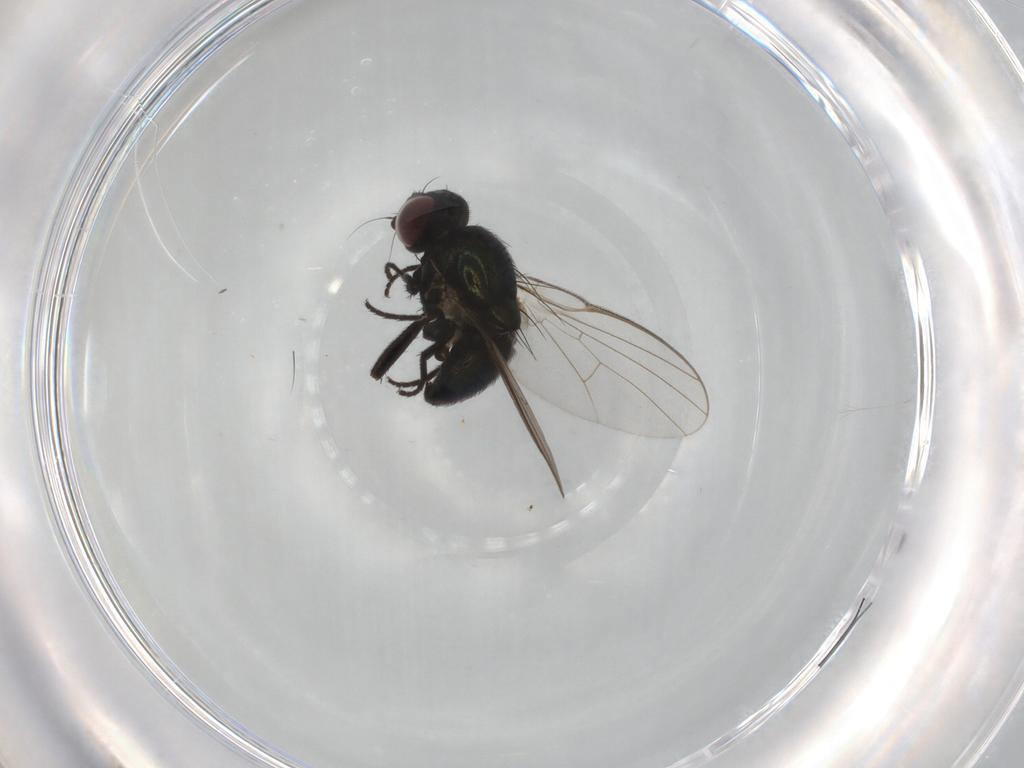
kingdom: Animalia
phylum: Arthropoda
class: Insecta
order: Diptera
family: Agromyzidae
